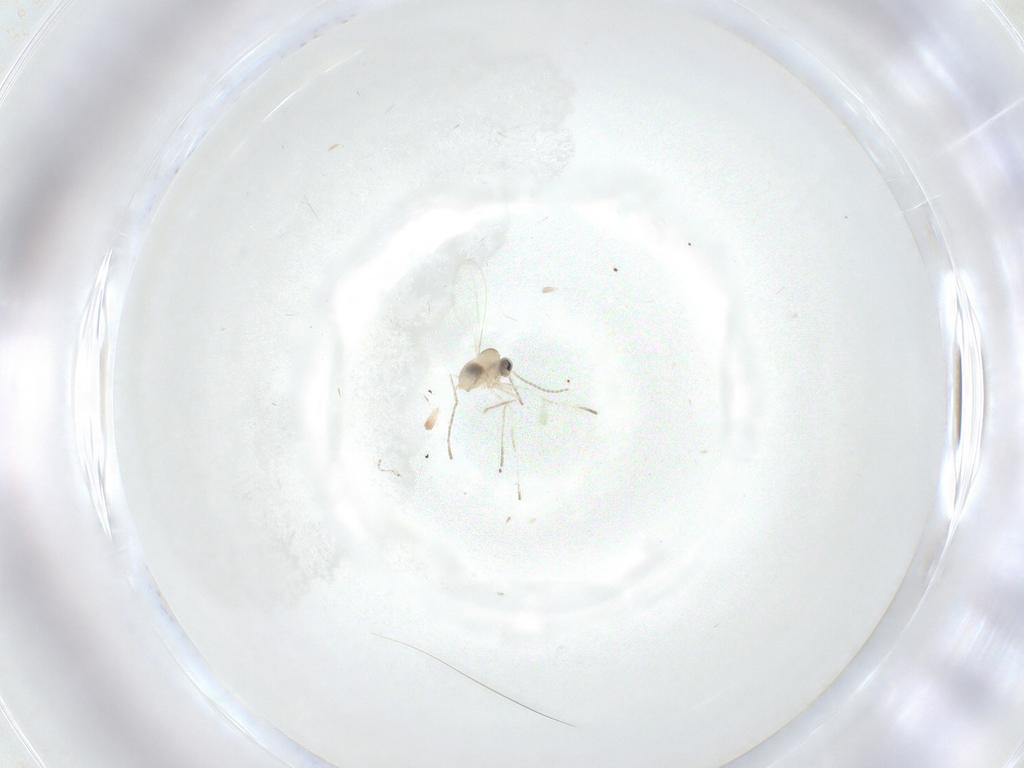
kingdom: Animalia
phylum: Arthropoda
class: Insecta
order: Diptera
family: Cecidomyiidae
